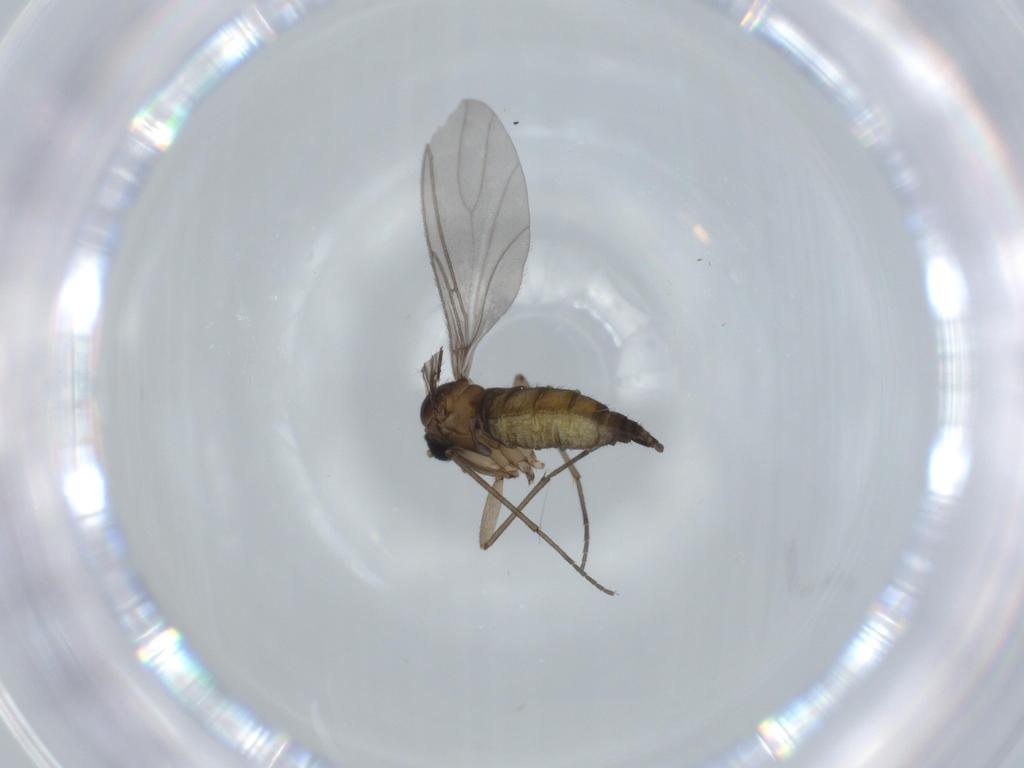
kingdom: Animalia
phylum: Arthropoda
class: Insecta
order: Diptera
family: Sciaridae
